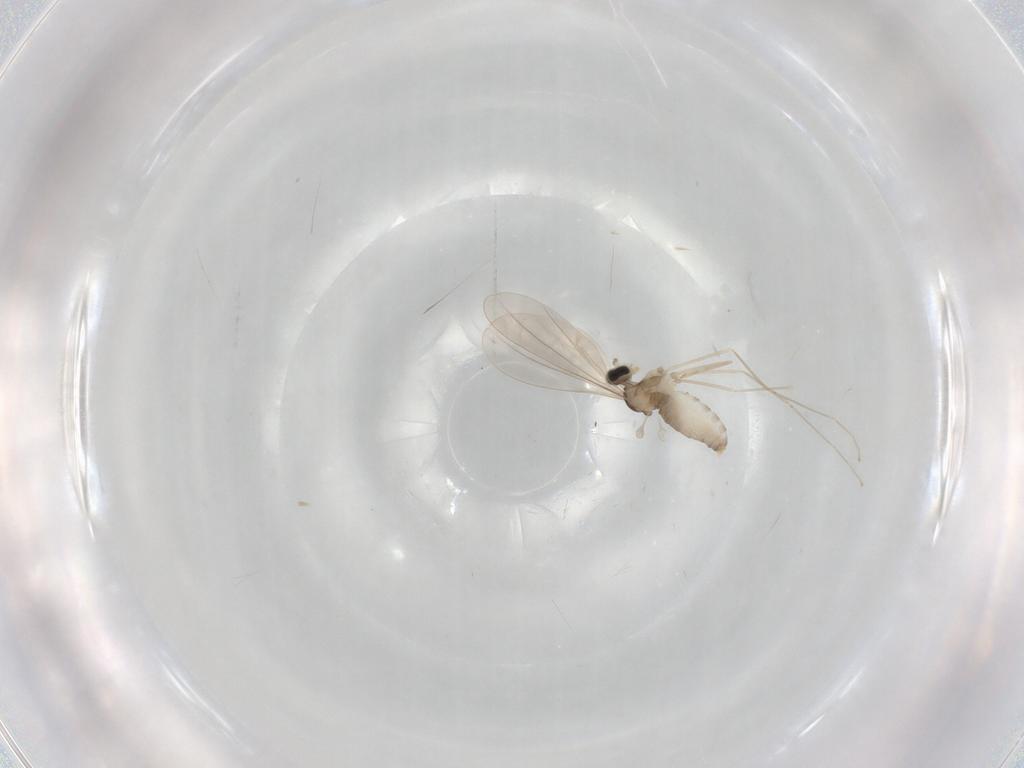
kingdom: Animalia
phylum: Arthropoda
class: Insecta
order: Diptera
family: Cecidomyiidae
